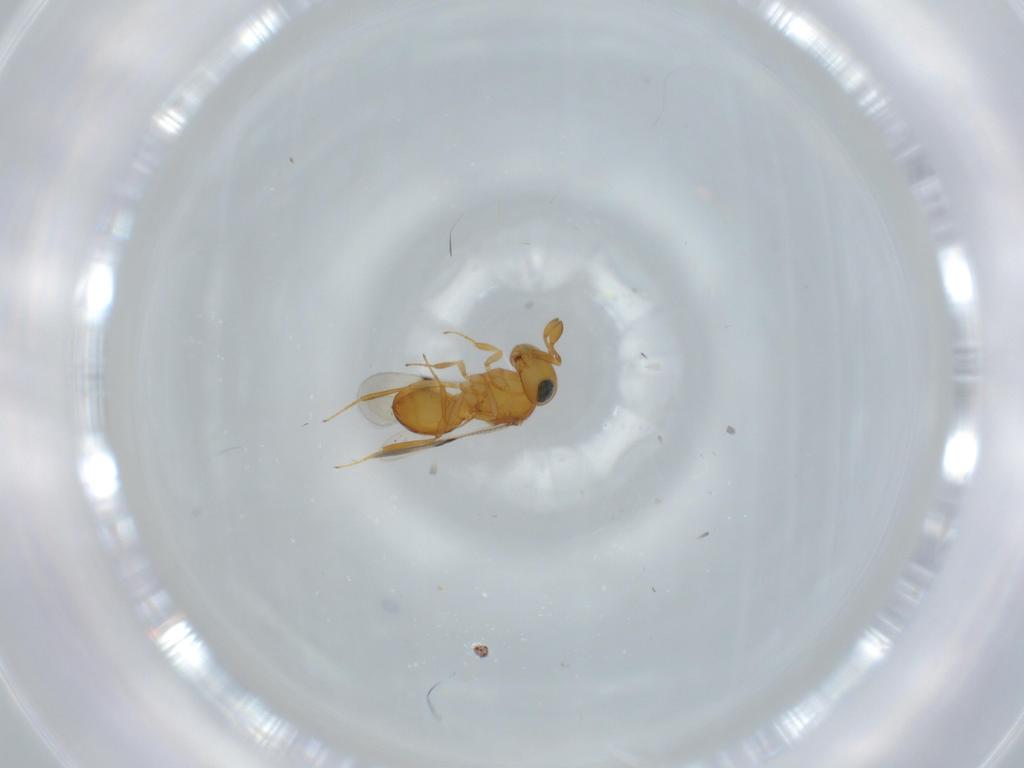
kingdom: Animalia
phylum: Arthropoda
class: Insecta
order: Hymenoptera
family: Scelionidae
